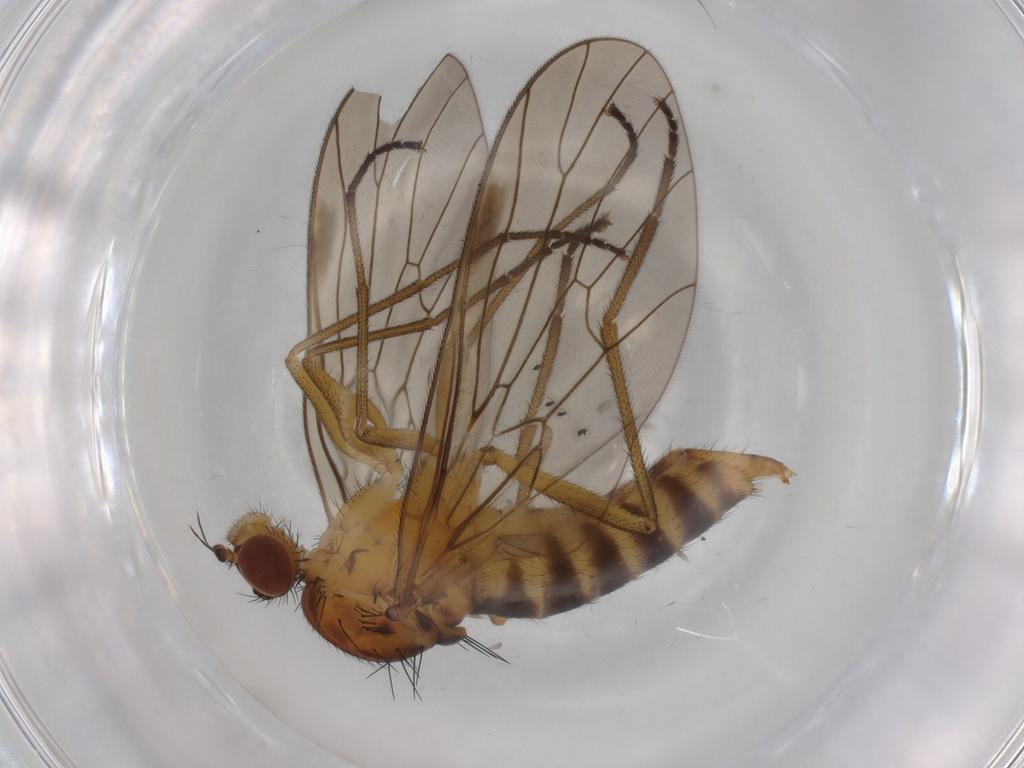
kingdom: Animalia
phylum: Arthropoda
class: Insecta
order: Diptera
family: Brachystomatidae
